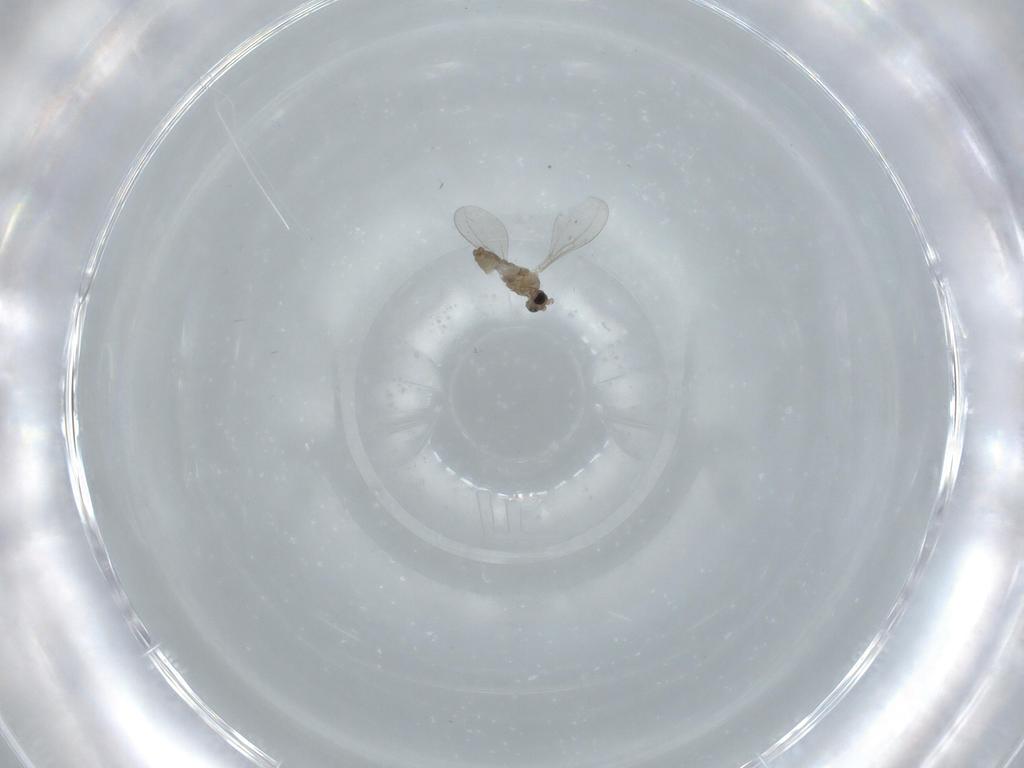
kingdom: Animalia
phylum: Arthropoda
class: Insecta
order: Diptera
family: Cecidomyiidae
